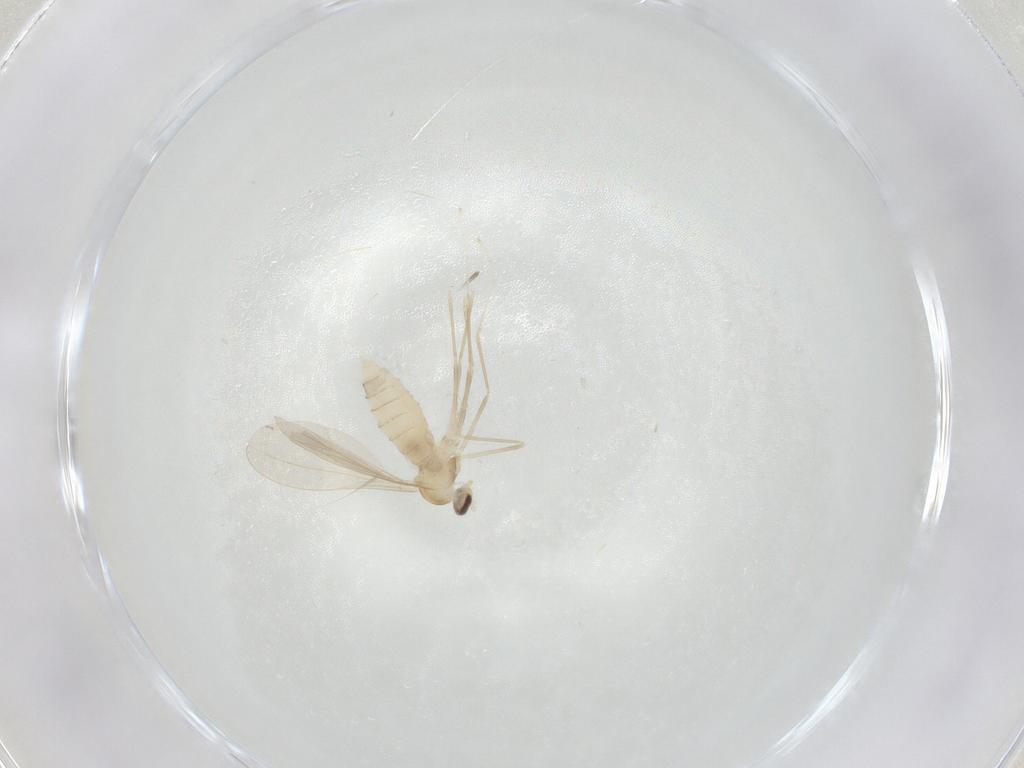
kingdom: Animalia
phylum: Arthropoda
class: Insecta
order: Diptera
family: Cecidomyiidae
